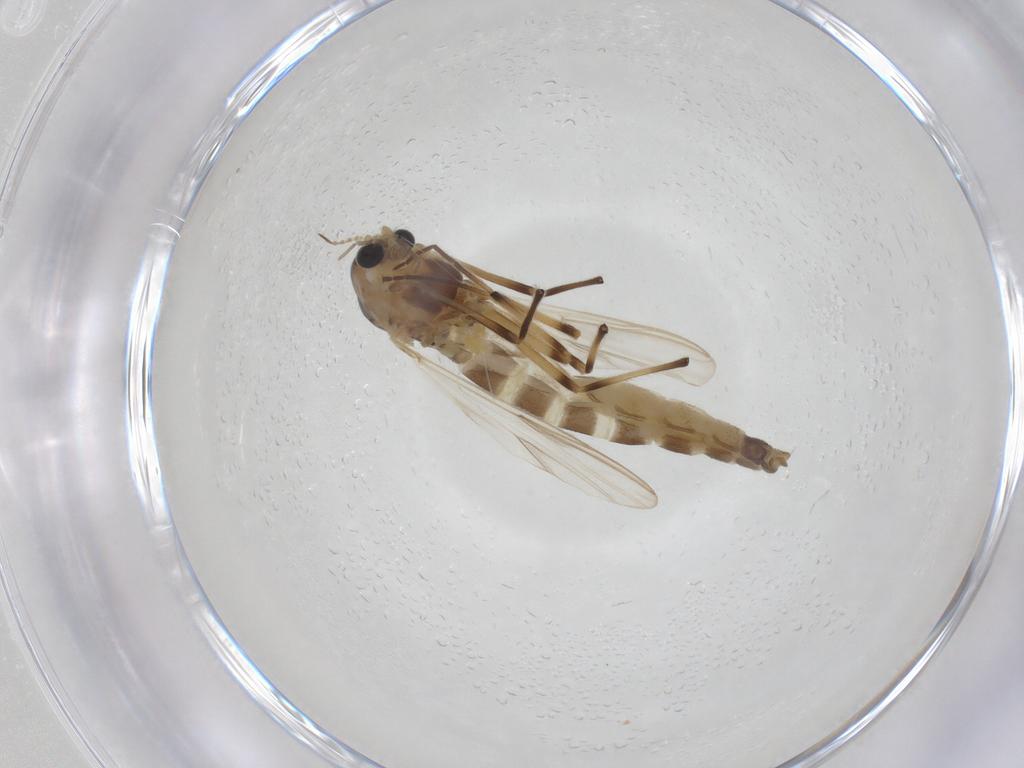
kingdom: Animalia
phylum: Arthropoda
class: Insecta
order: Diptera
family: Chironomidae
